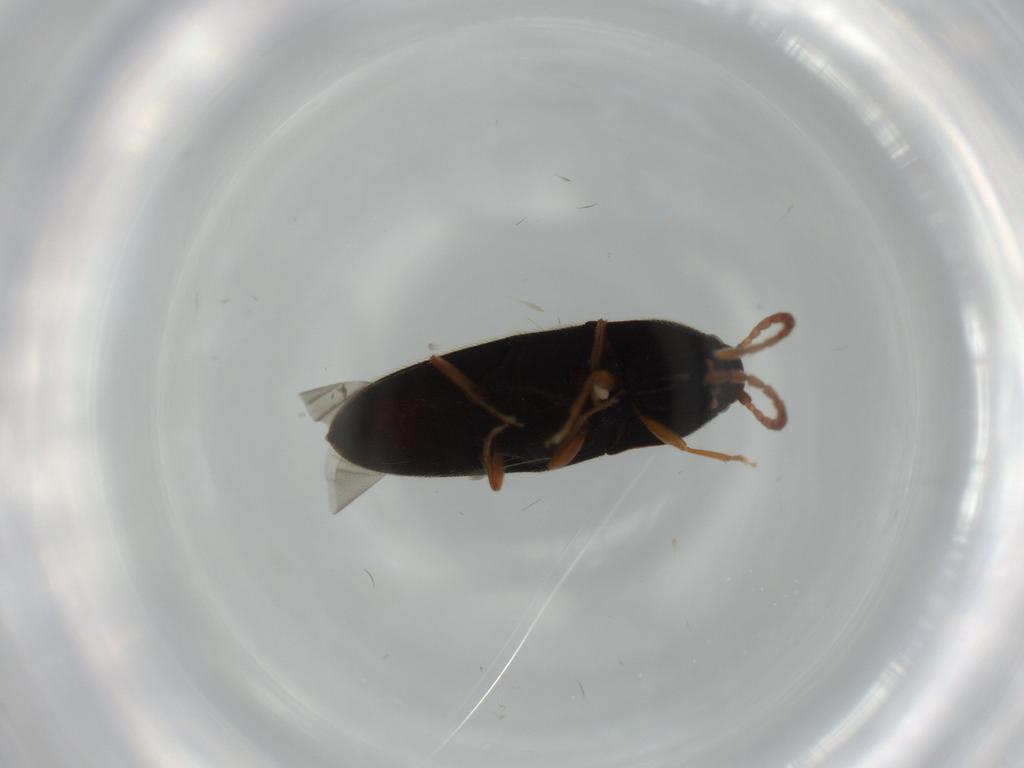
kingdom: Animalia
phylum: Arthropoda
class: Insecta
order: Coleoptera
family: Elateridae
